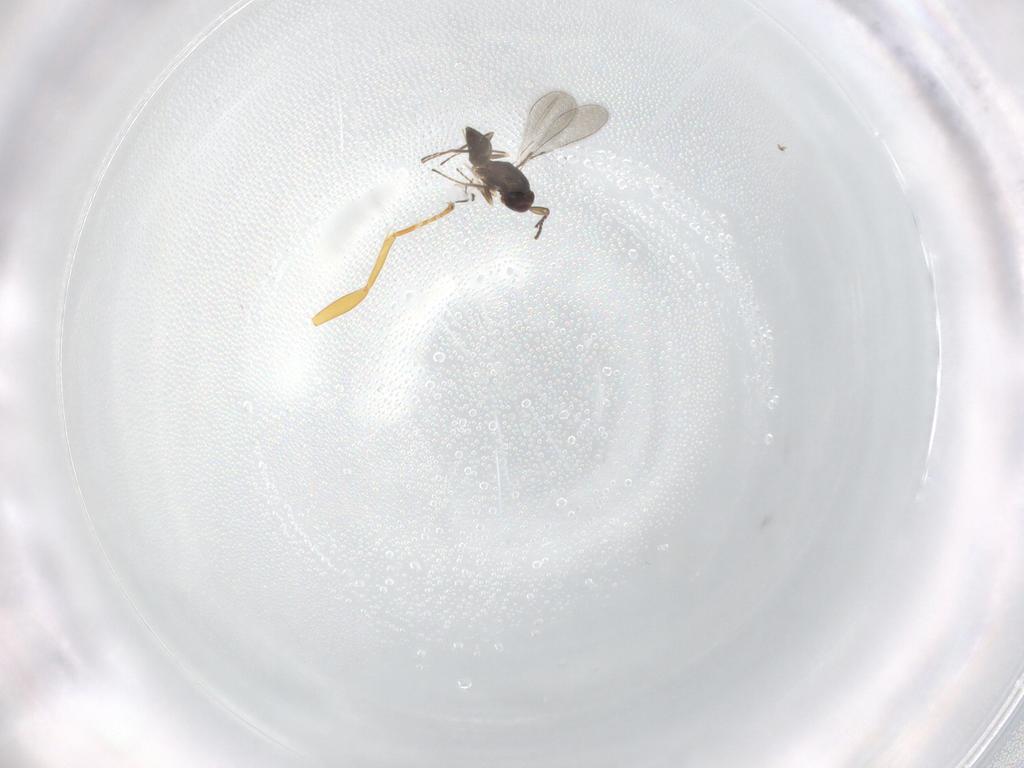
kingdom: Animalia
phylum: Arthropoda
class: Insecta
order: Hymenoptera
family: Mymaridae
